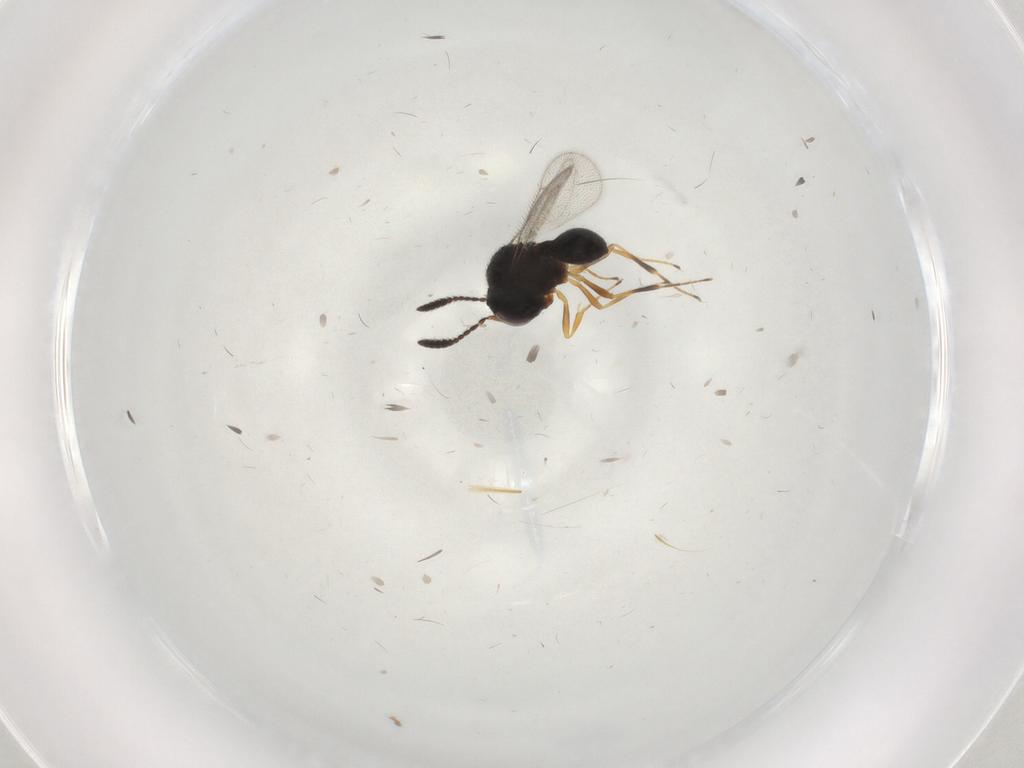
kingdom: Animalia
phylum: Arthropoda
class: Insecta
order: Hymenoptera
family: Scelionidae
